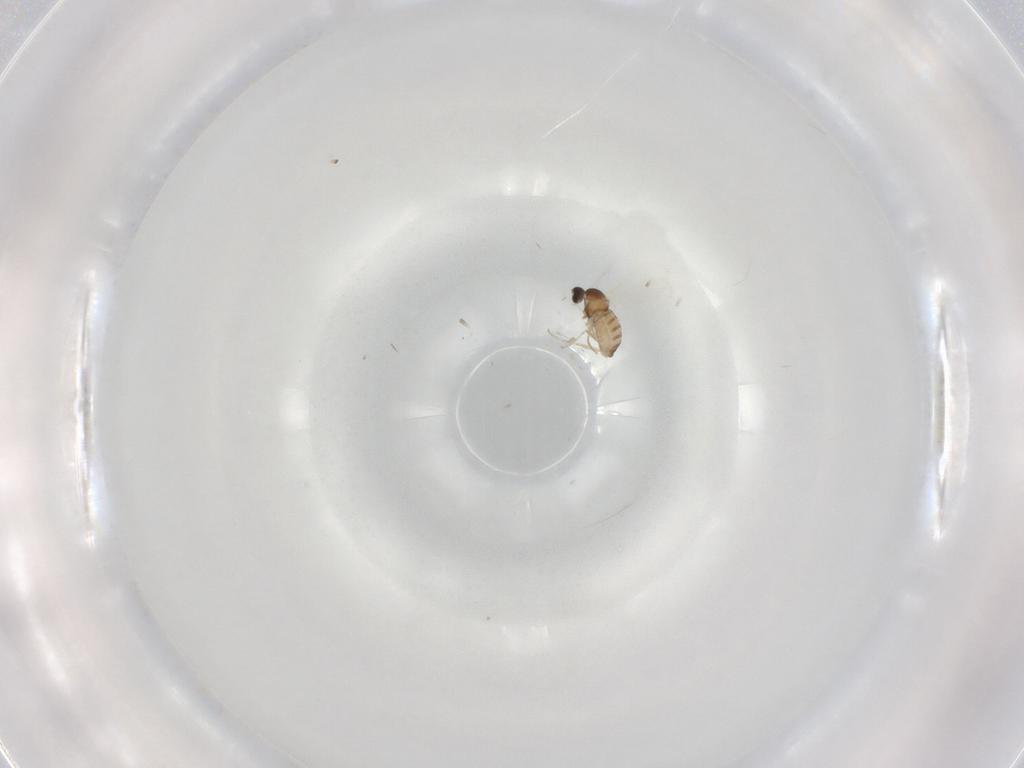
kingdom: Animalia
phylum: Arthropoda
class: Insecta
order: Diptera
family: Cecidomyiidae
